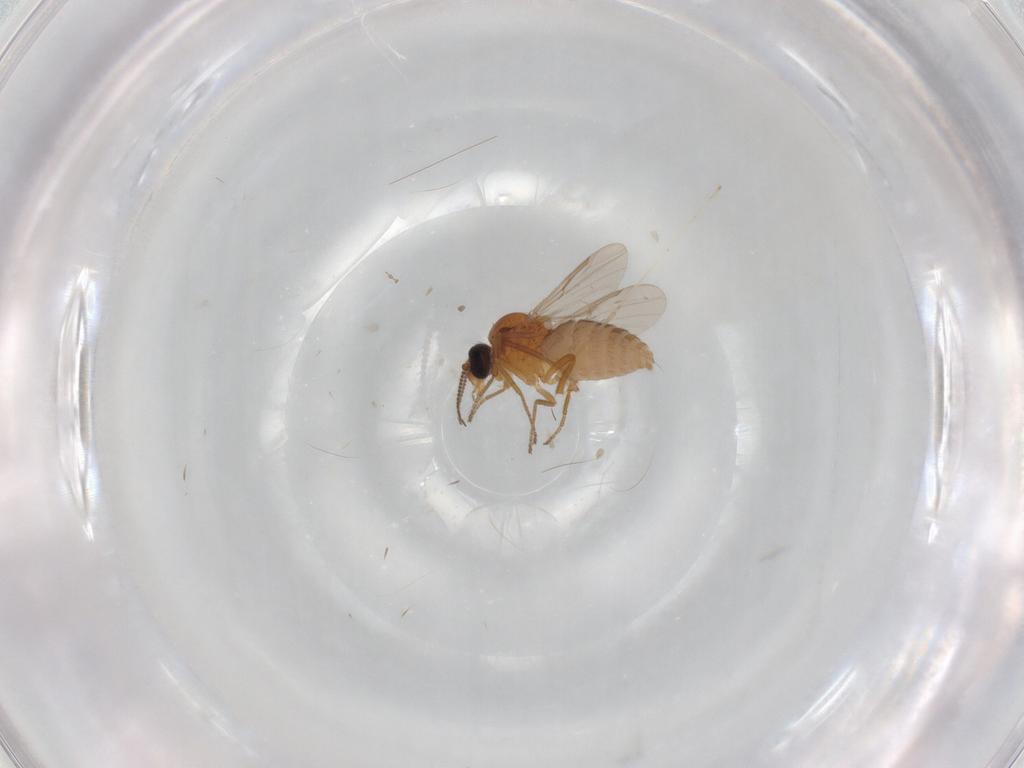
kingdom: Animalia
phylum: Arthropoda
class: Insecta
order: Diptera
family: Ceratopogonidae
